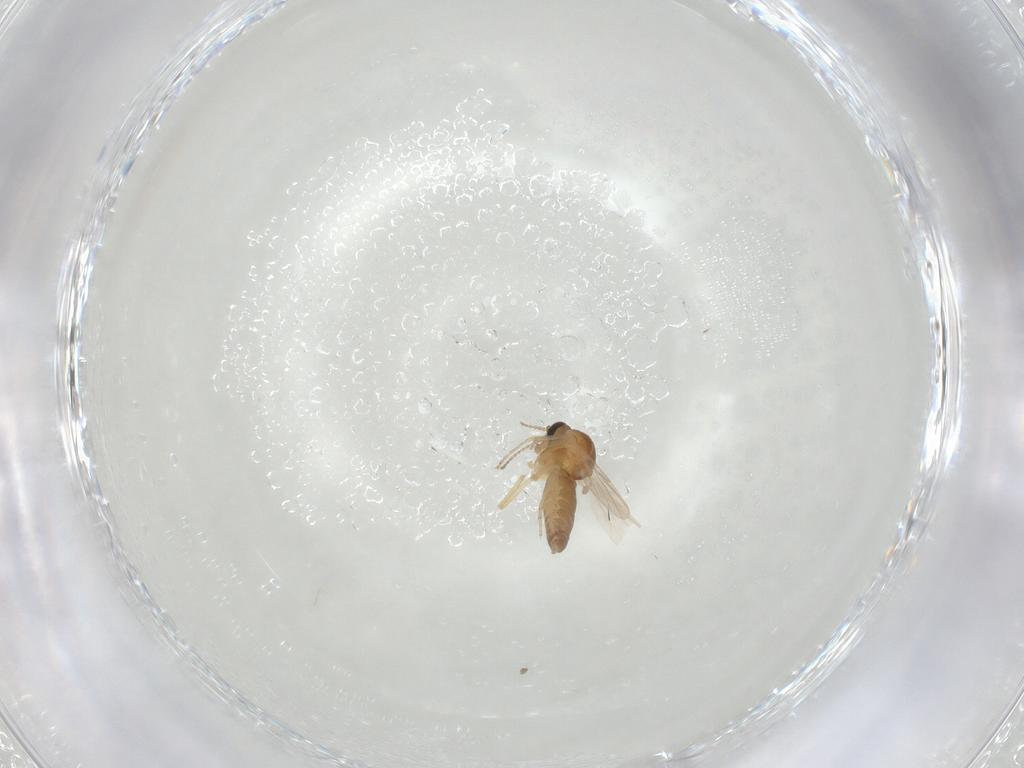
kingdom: Animalia
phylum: Arthropoda
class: Insecta
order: Diptera
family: Ceratopogonidae
